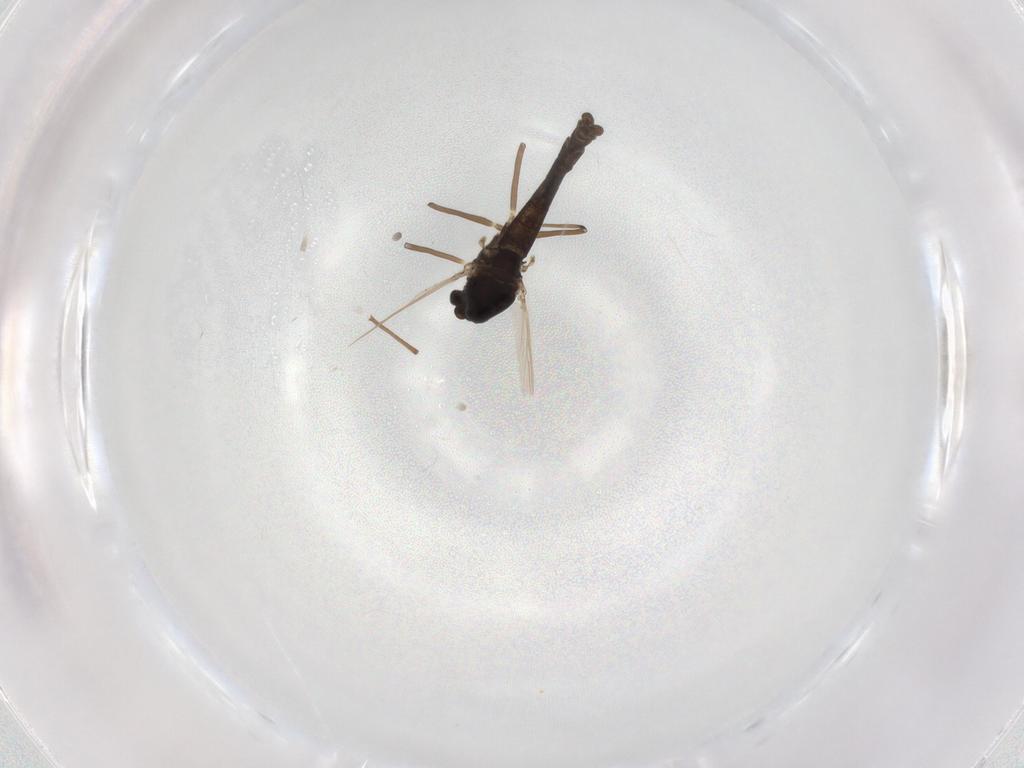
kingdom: Animalia
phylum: Arthropoda
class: Insecta
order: Diptera
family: Chironomidae
